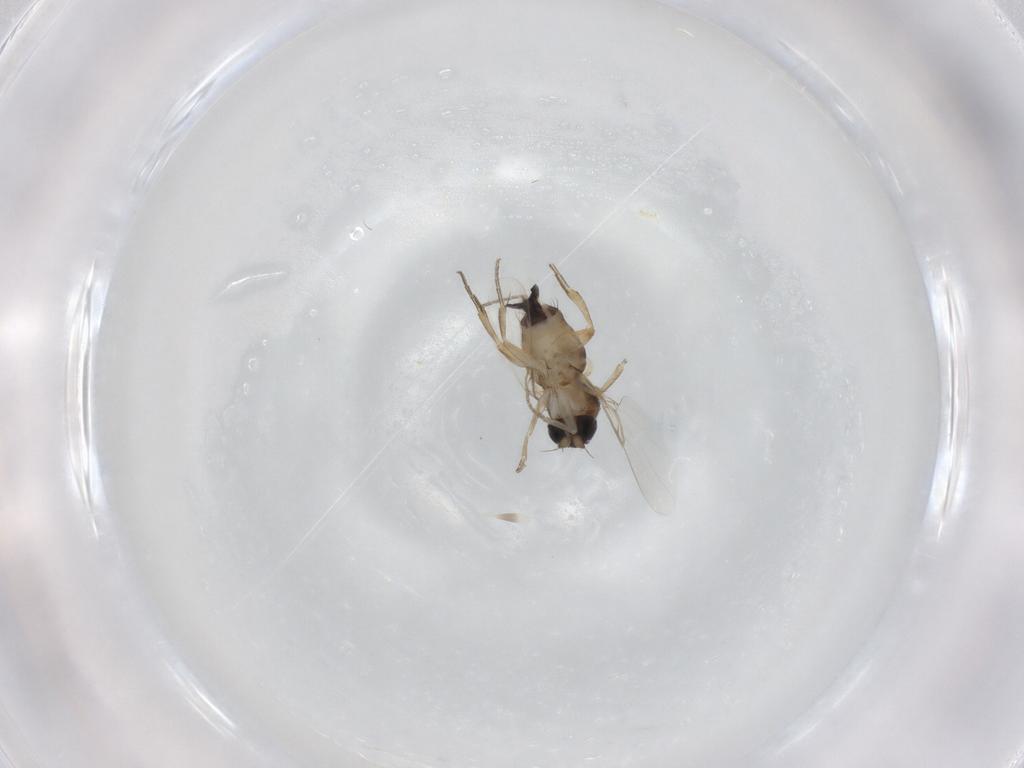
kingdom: Animalia
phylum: Arthropoda
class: Insecta
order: Diptera
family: Phoridae
